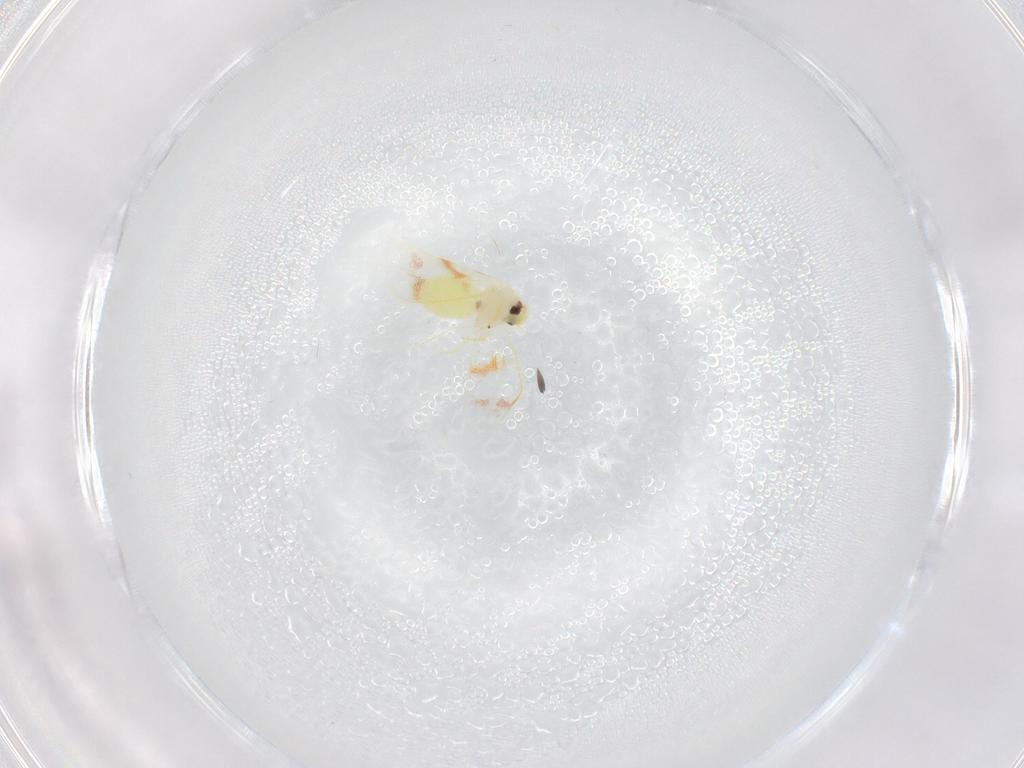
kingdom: Animalia
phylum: Arthropoda
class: Insecta
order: Hemiptera
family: Aleyrodidae
